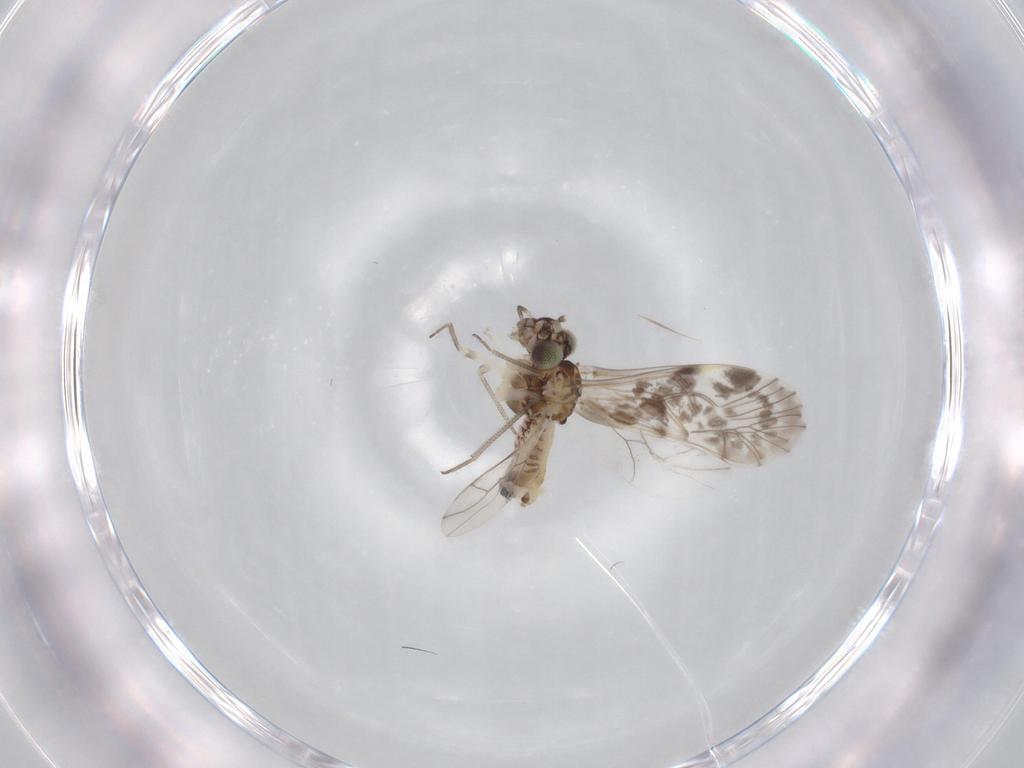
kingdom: Animalia
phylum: Arthropoda
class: Insecta
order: Psocodea
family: Psocidae
